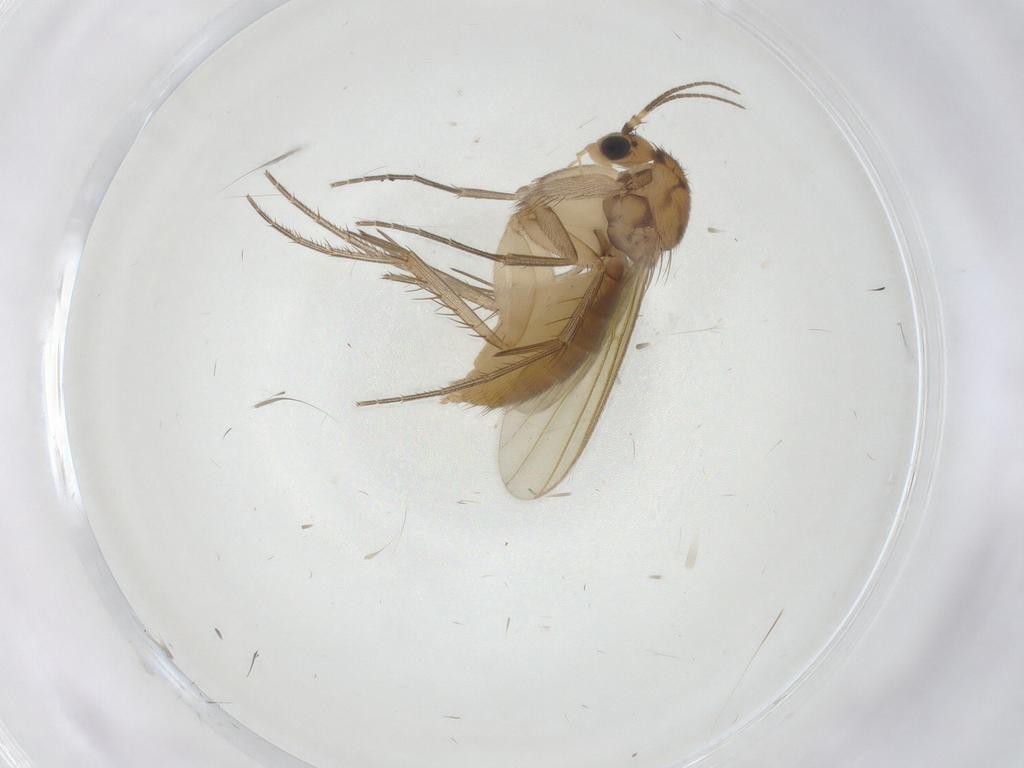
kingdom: Animalia
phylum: Arthropoda
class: Insecta
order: Diptera
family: Mycetophilidae
